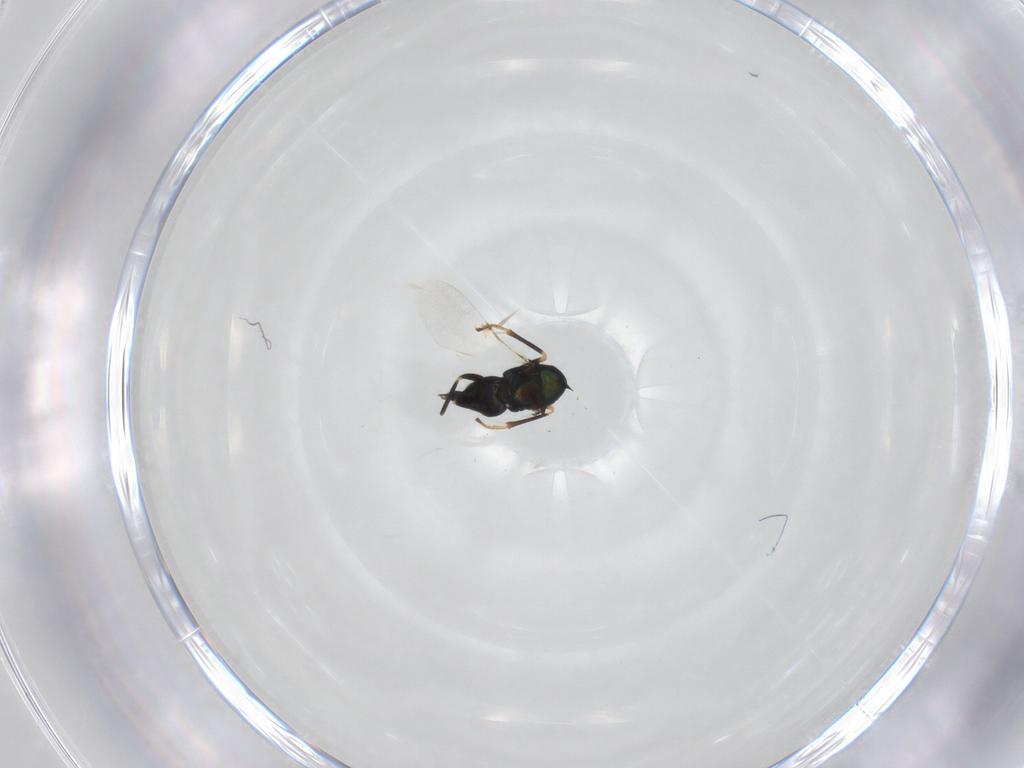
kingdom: Animalia
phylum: Arthropoda
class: Insecta
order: Hymenoptera
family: Encyrtidae
